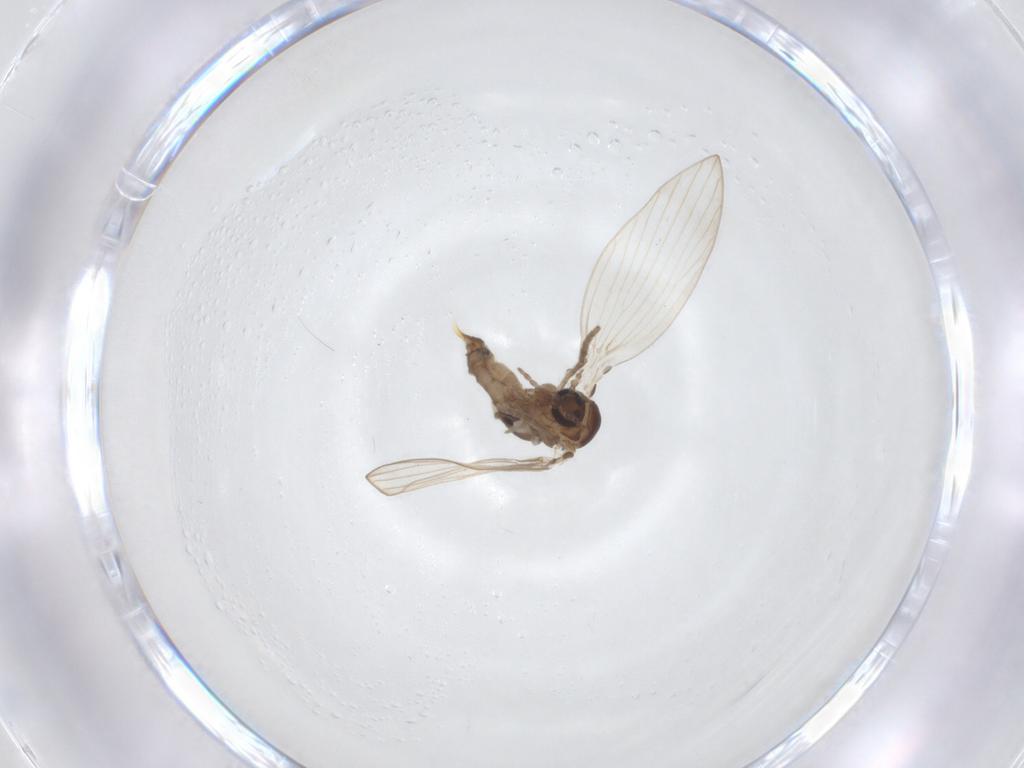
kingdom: Animalia
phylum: Arthropoda
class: Insecta
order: Diptera
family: Psychodidae
